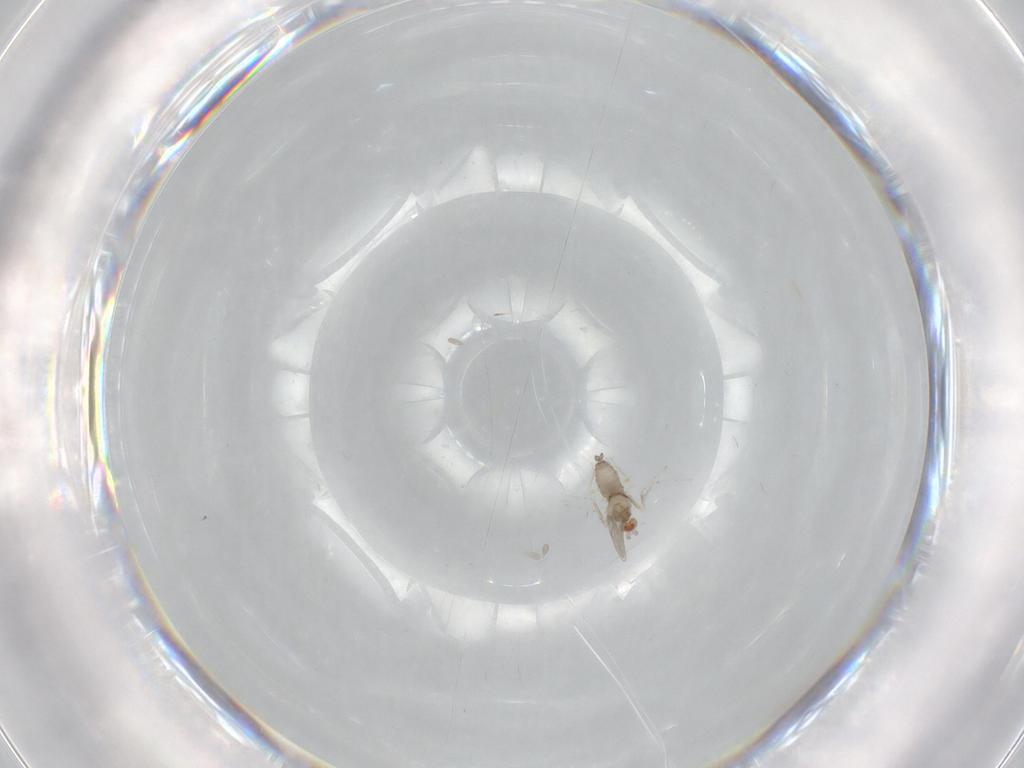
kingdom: Animalia
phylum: Arthropoda
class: Insecta
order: Diptera
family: Cecidomyiidae
